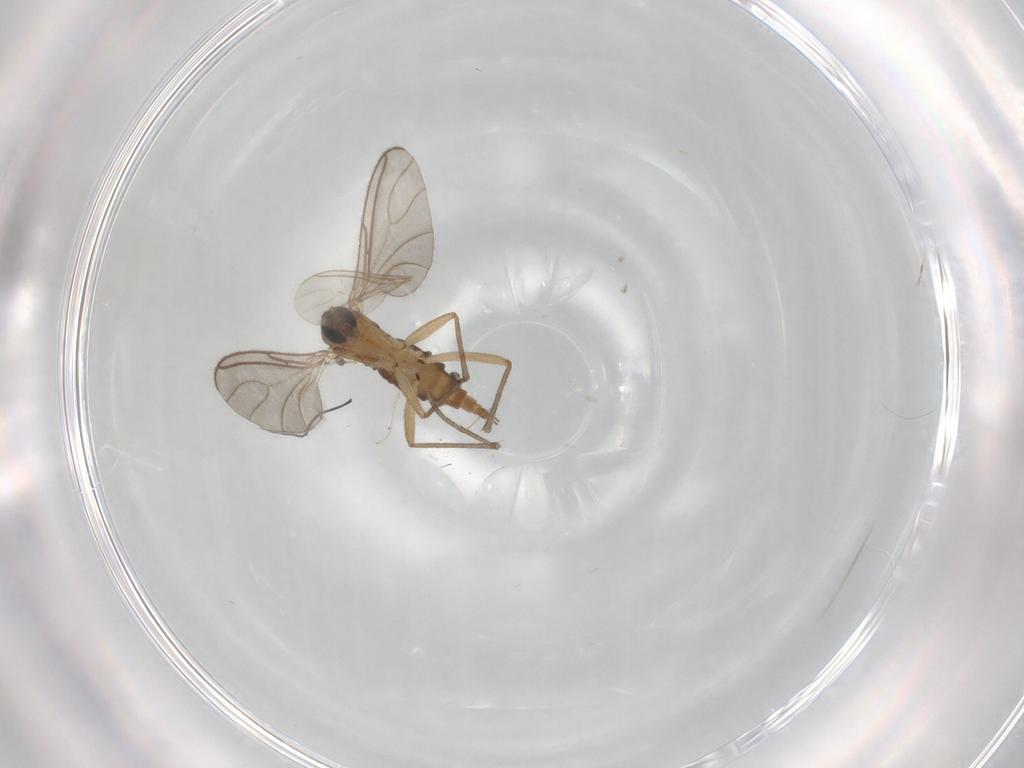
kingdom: Animalia
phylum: Arthropoda
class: Insecta
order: Diptera
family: Sciaridae
